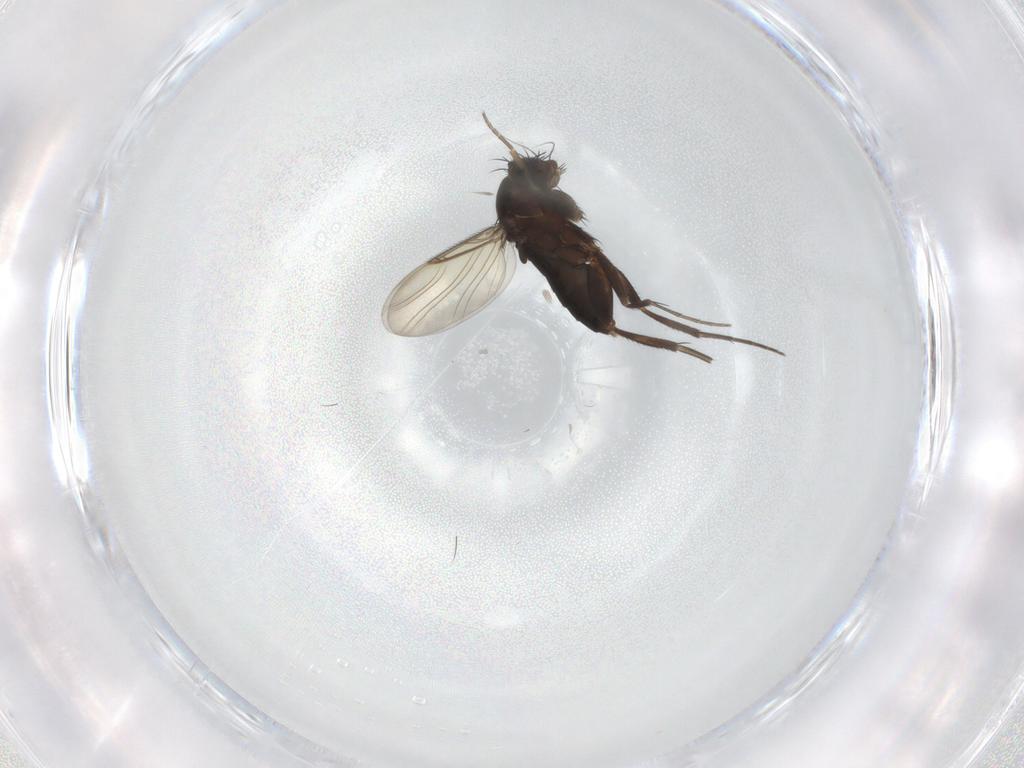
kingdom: Animalia
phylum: Arthropoda
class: Insecta
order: Diptera
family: Phoridae
